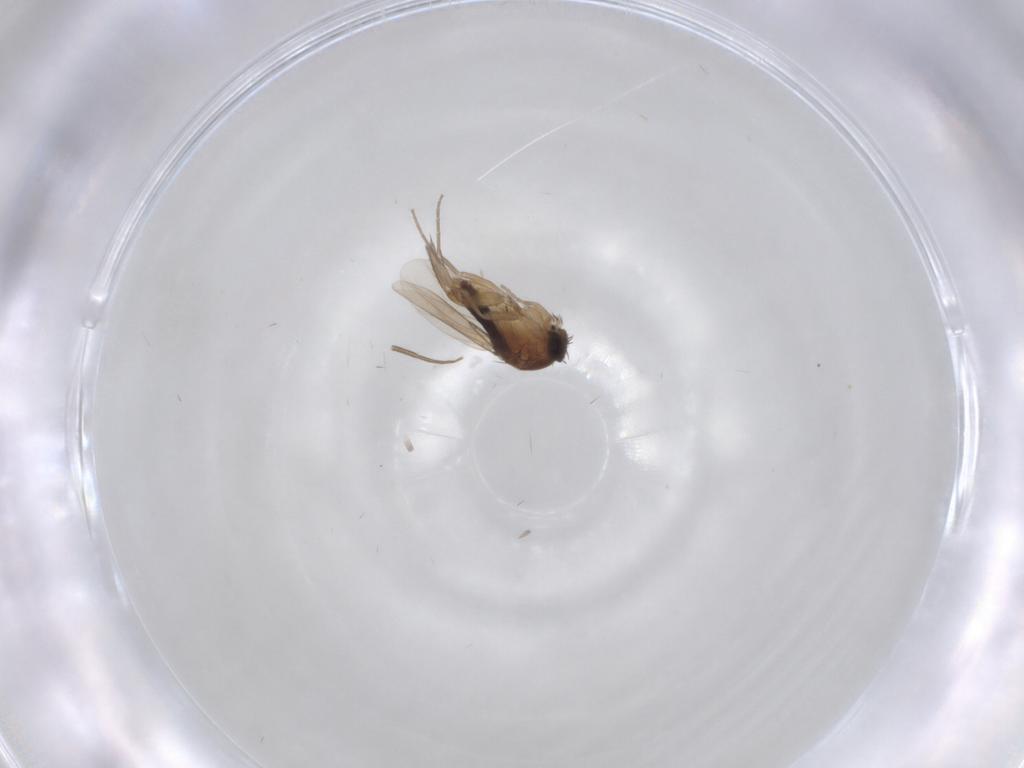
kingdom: Animalia
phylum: Arthropoda
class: Insecta
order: Diptera
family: Phoridae
